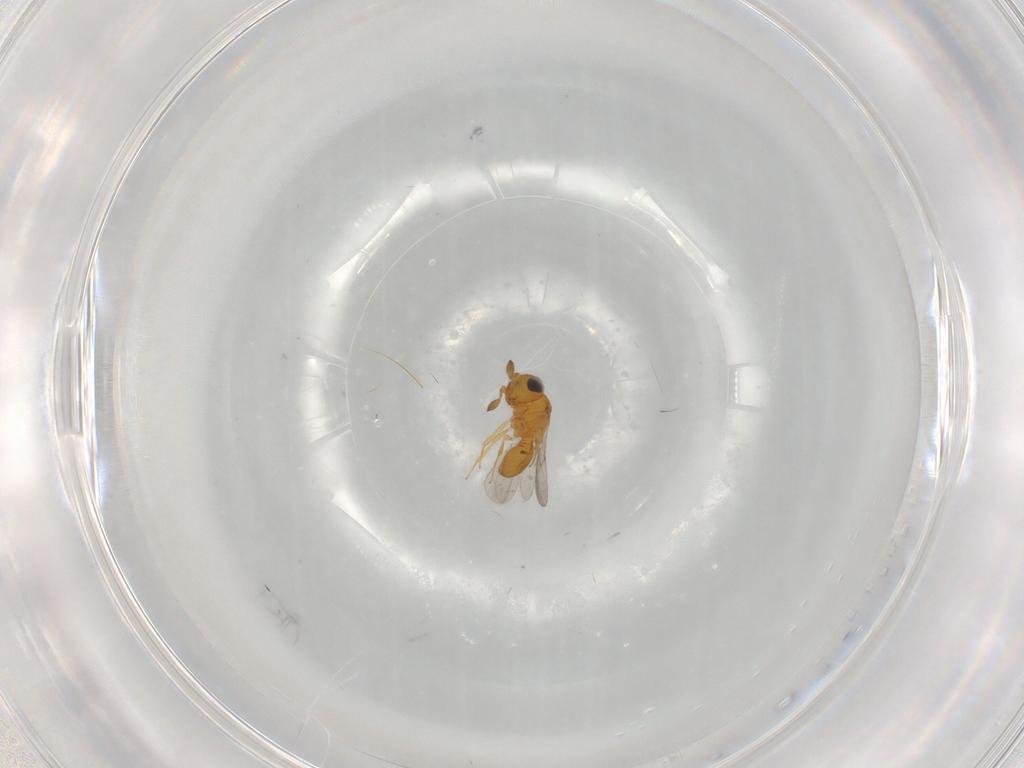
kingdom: Animalia
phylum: Arthropoda
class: Insecta
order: Hymenoptera
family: Scelionidae
